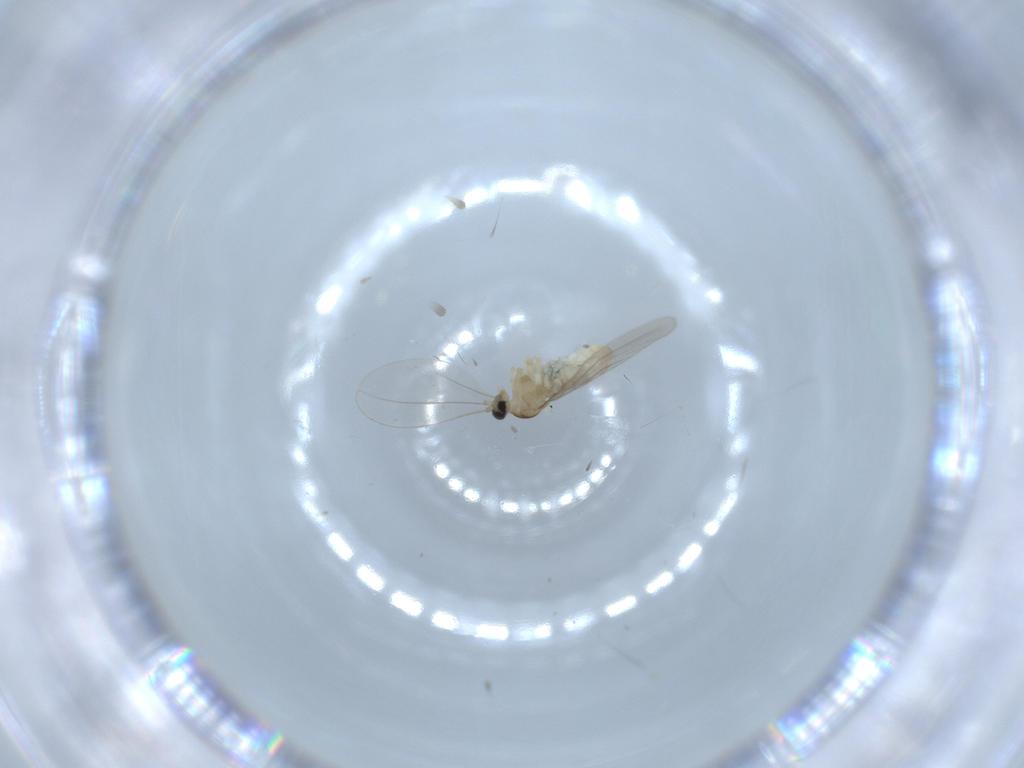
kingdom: Animalia
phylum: Arthropoda
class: Insecta
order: Diptera
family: Cecidomyiidae
